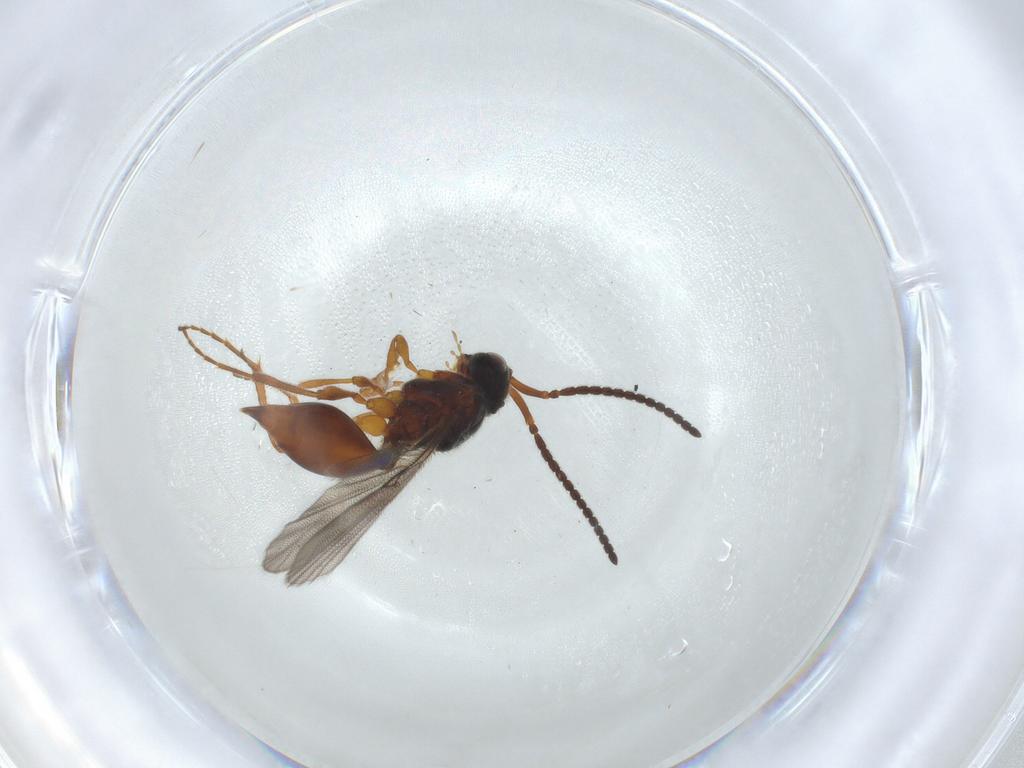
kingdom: Animalia
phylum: Arthropoda
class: Insecta
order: Hymenoptera
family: Diapriidae
